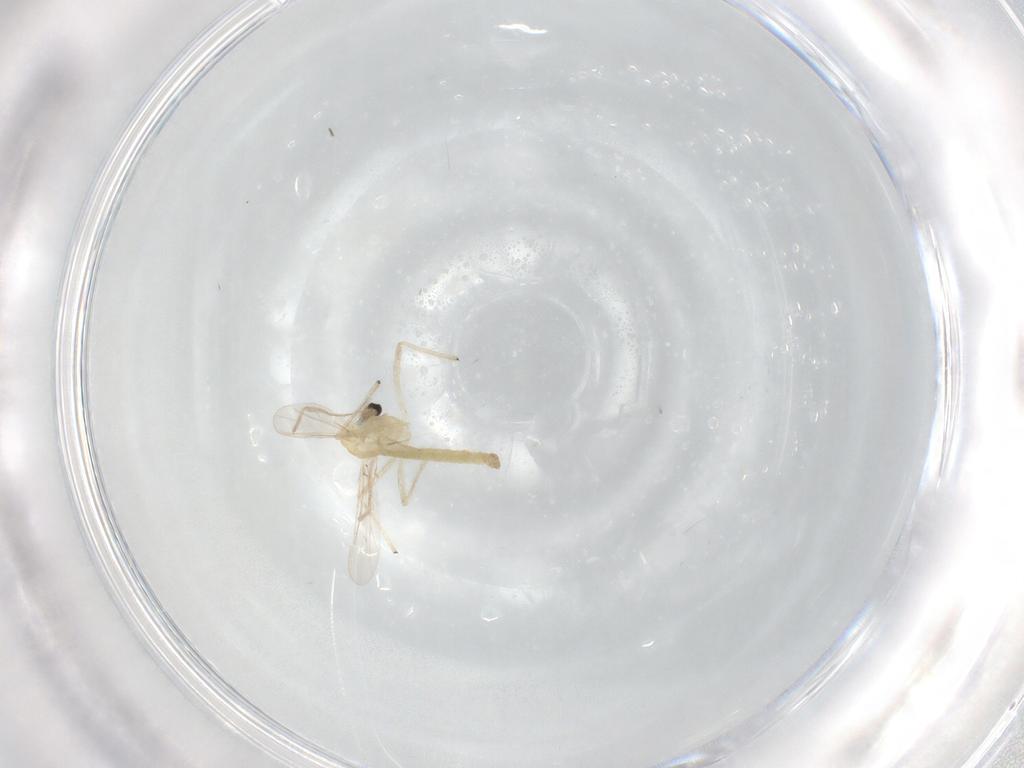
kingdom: Animalia
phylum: Arthropoda
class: Insecta
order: Diptera
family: Chironomidae
